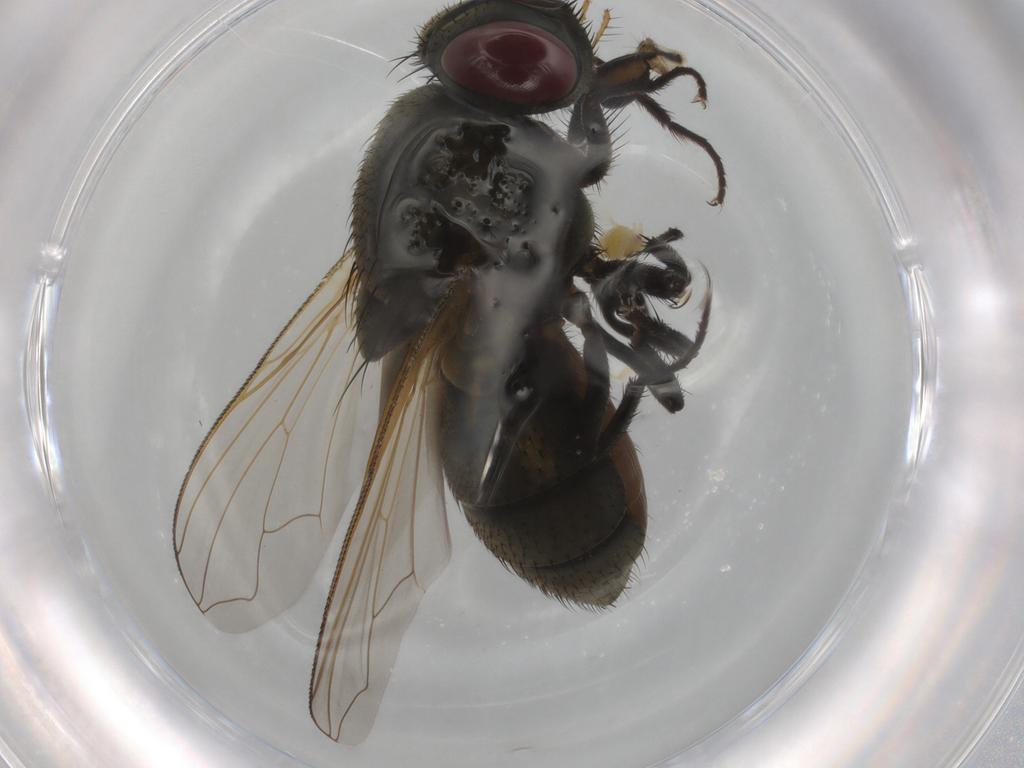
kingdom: Animalia
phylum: Arthropoda
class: Insecta
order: Diptera
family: Muscidae
